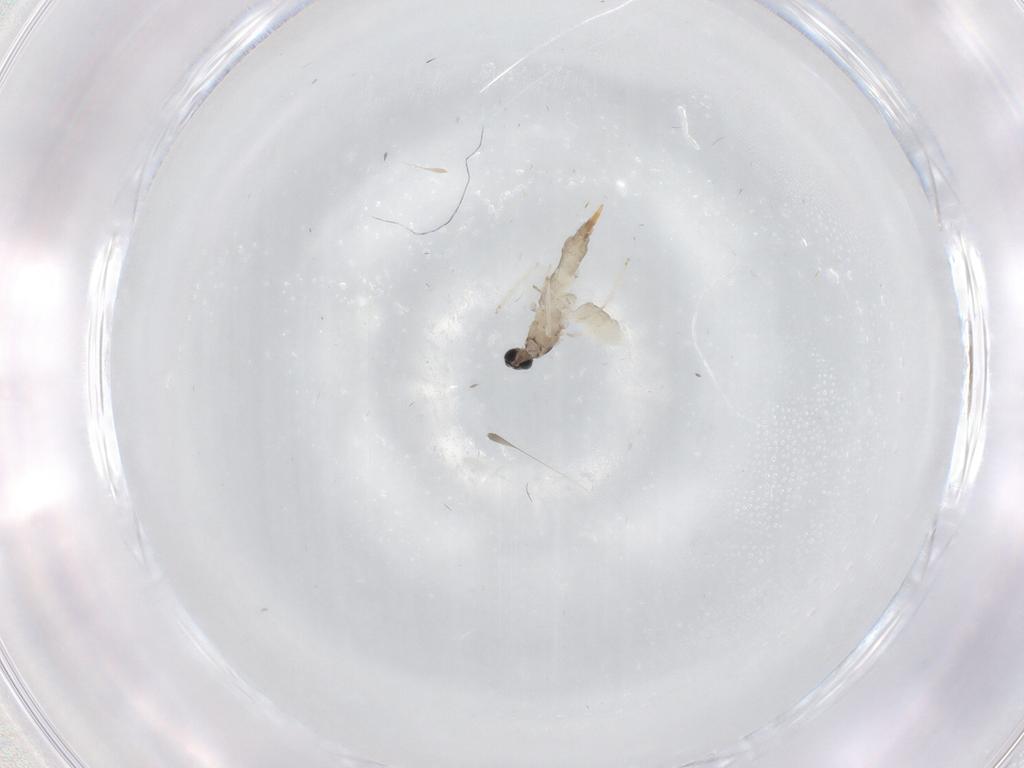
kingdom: Animalia
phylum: Arthropoda
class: Insecta
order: Diptera
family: Cecidomyiidae
